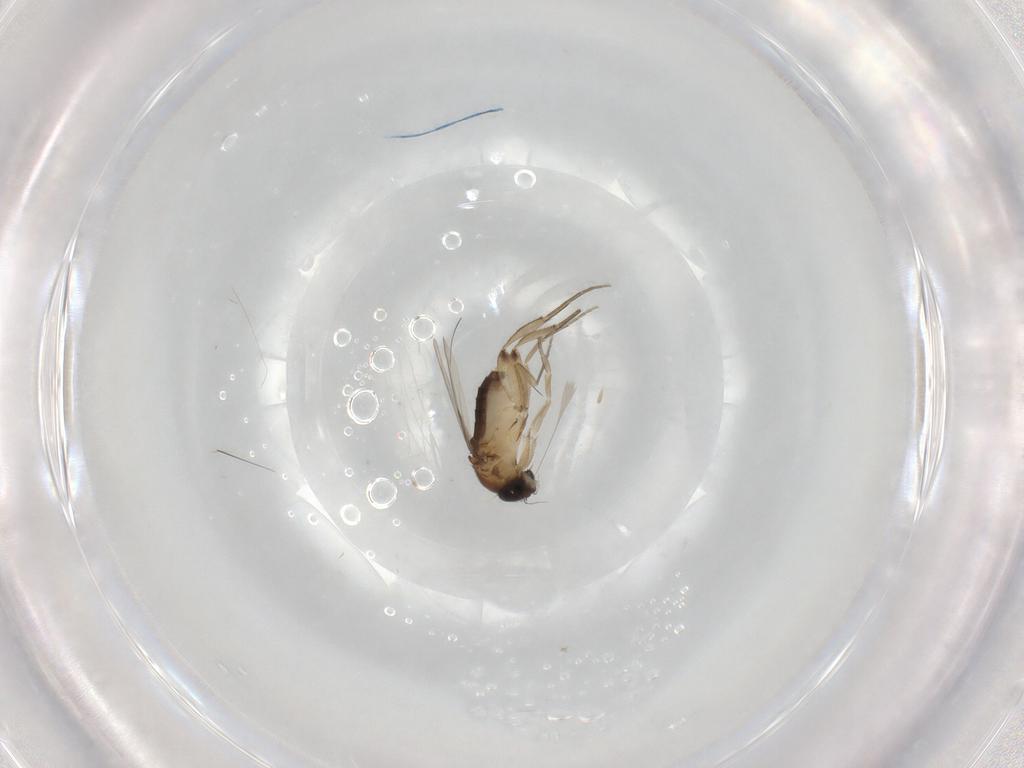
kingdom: Animalia
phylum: Arthropoda
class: Insecta
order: Diptera
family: Phoridae
